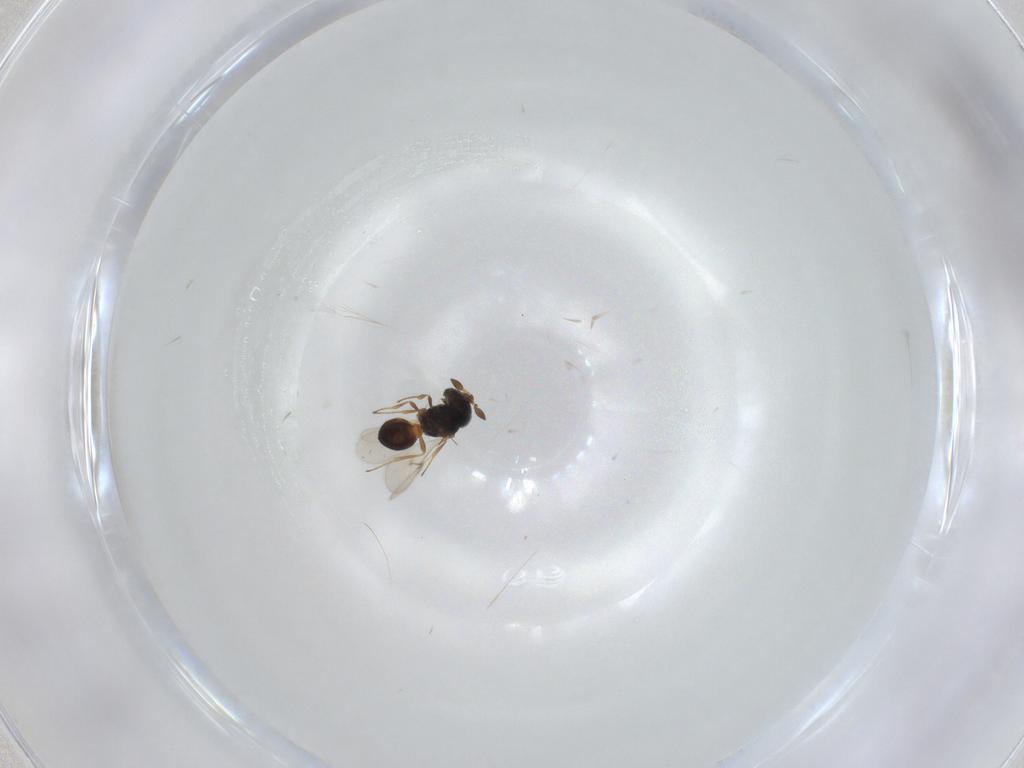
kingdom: Animalia
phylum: Arthropoda
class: Insecta
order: Hymenoptera
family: Scelionidae
